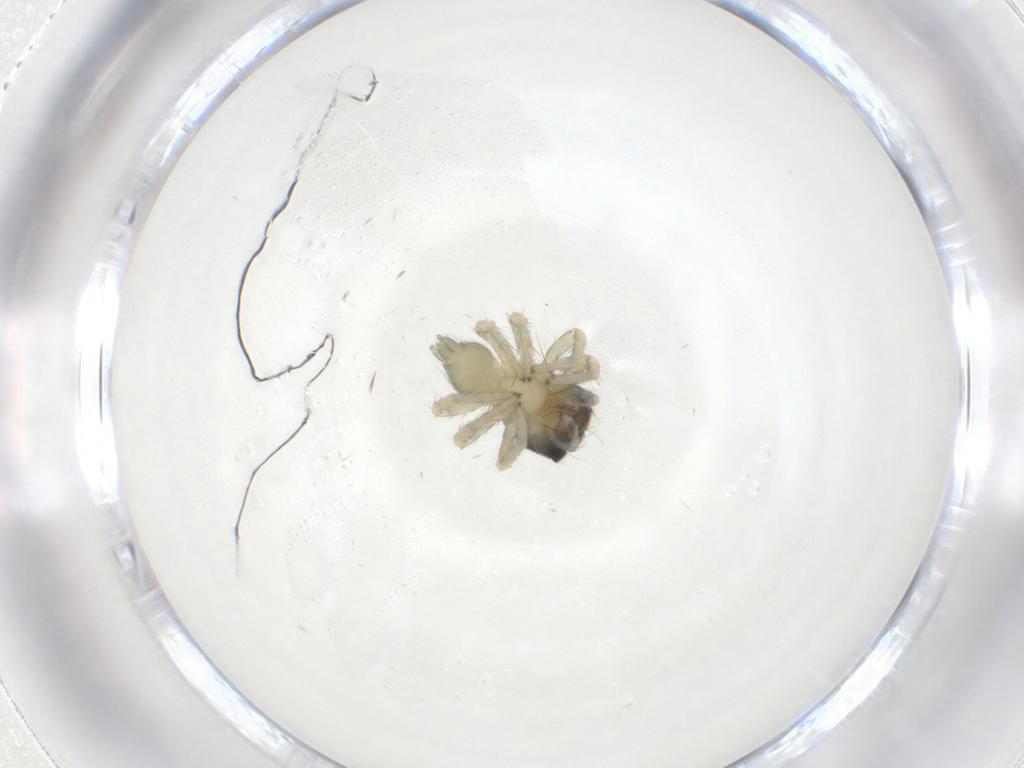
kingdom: Animalia
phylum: Arthropoda
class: Arachnida
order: Araneae
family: Salticidae
